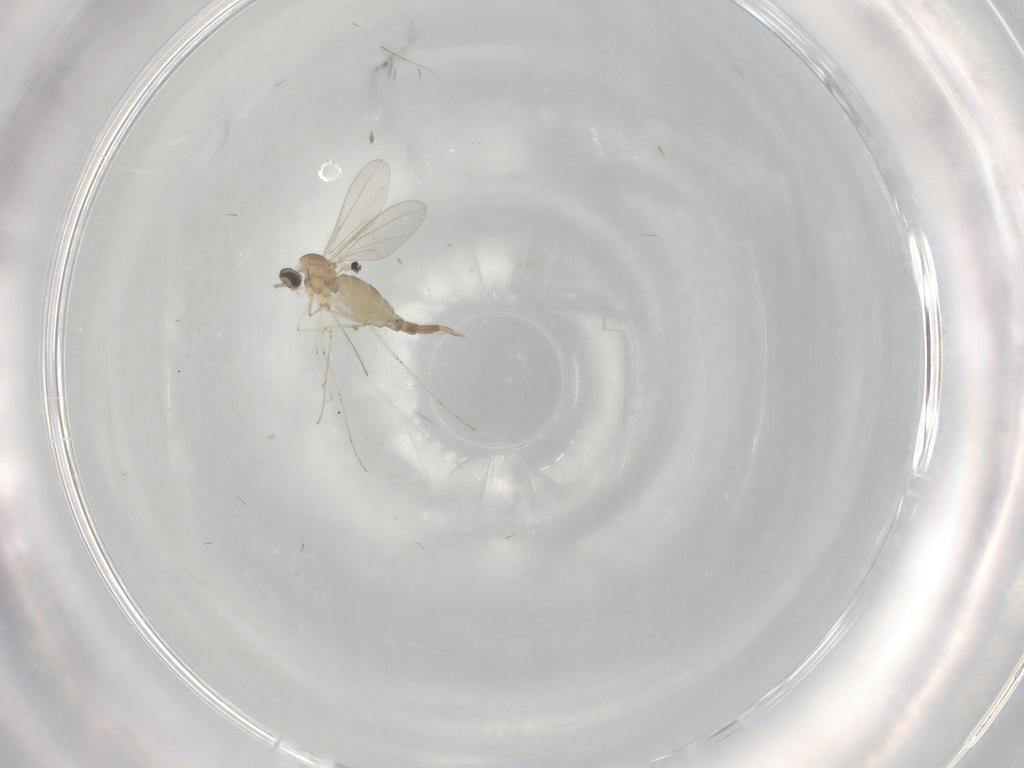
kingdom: Animalia
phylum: Arthropoda
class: Insecta
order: Diptera
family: Cecidomyiidae
